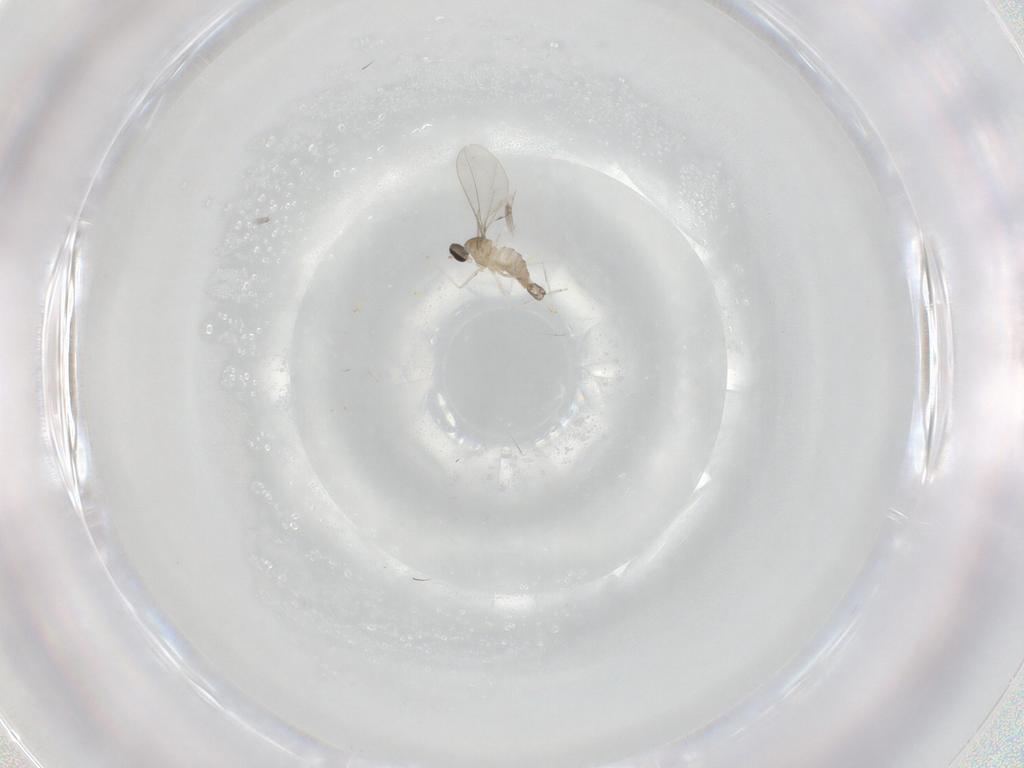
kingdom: Animalia
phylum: Arthropoda
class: Insecta
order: Diptera
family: Cecidomyiidae
